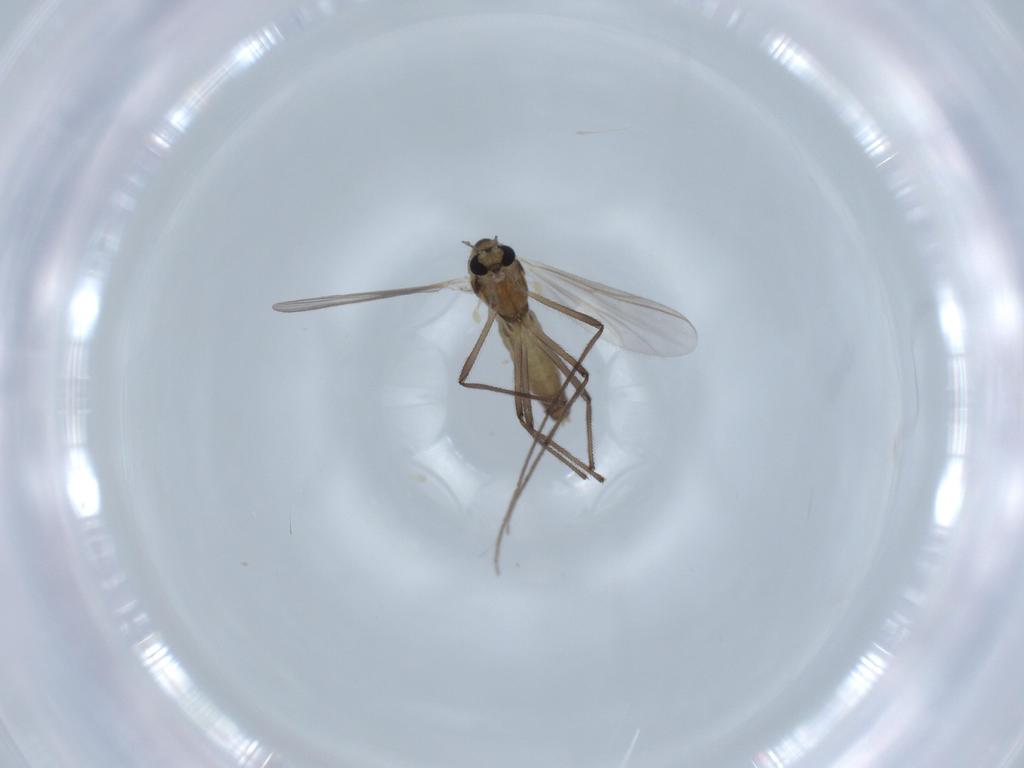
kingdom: Animalia
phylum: Arthropoda
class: Insecta
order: Diptera
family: Chironomidae
